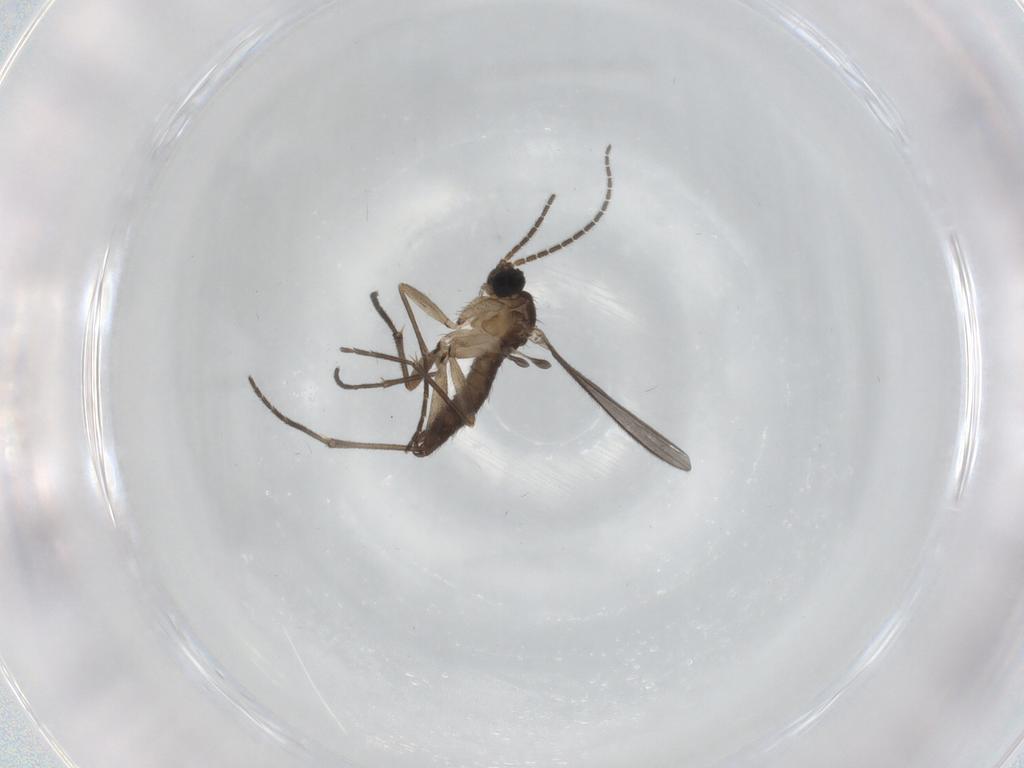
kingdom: Animalia
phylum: Arthropoda
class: Insecta
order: Diptera
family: Sciaridae
